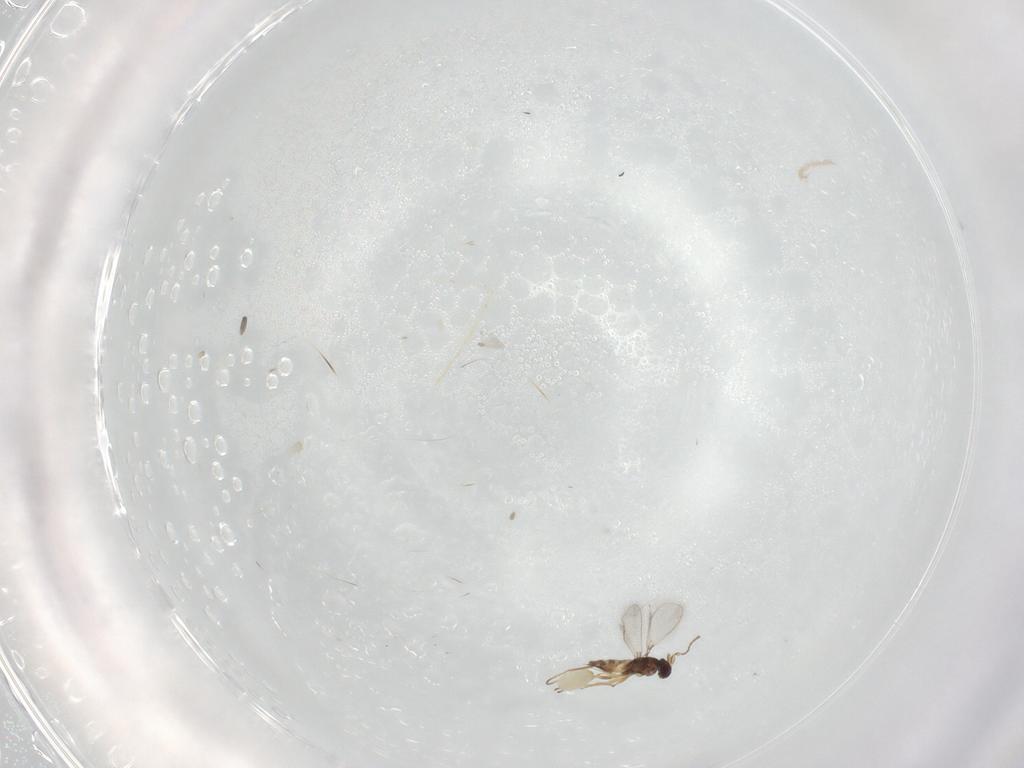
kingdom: Animalia
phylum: Arthropoda
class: Insecta
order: Hymenoptera
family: Mymaridae
